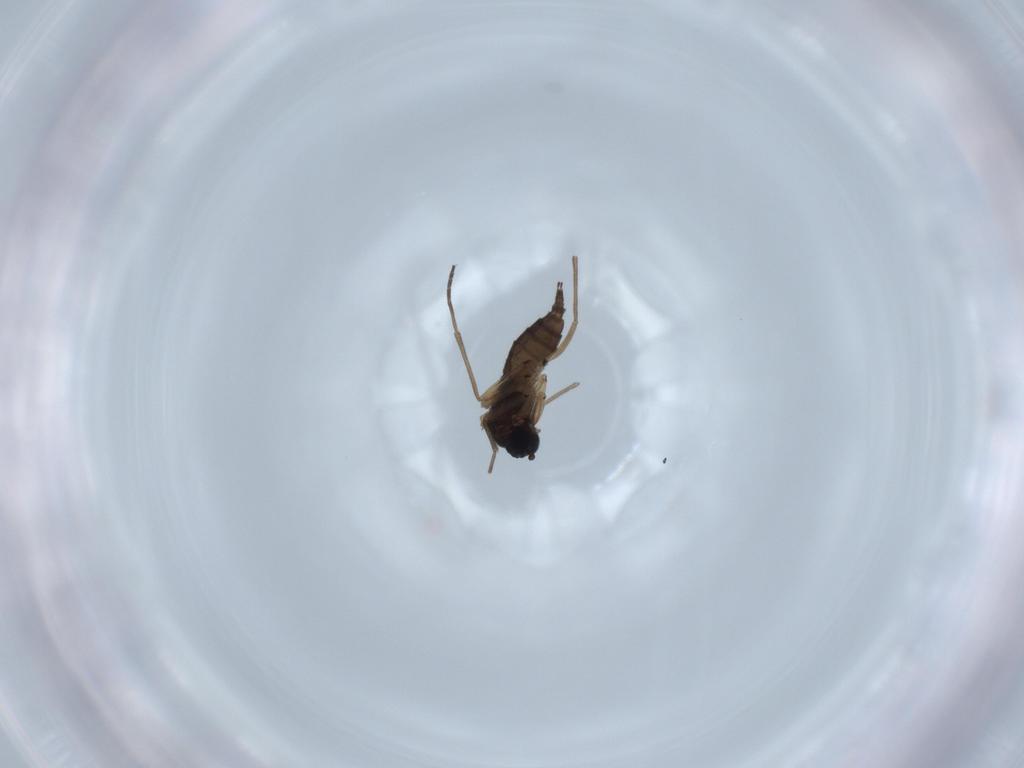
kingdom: Animalia
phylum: Arthropoda
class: Insecta
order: Diptera
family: Sciaridae
